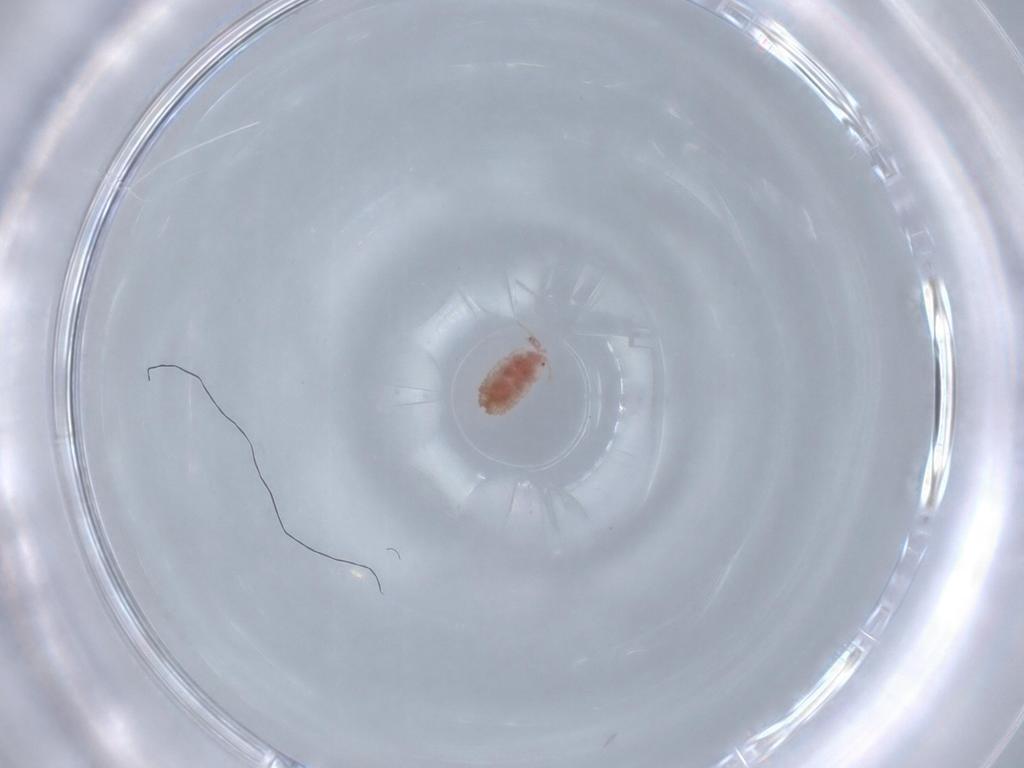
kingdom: Animalia
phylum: Arthropoda
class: Insecta
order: Hemiptera
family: Pseudococcidae
